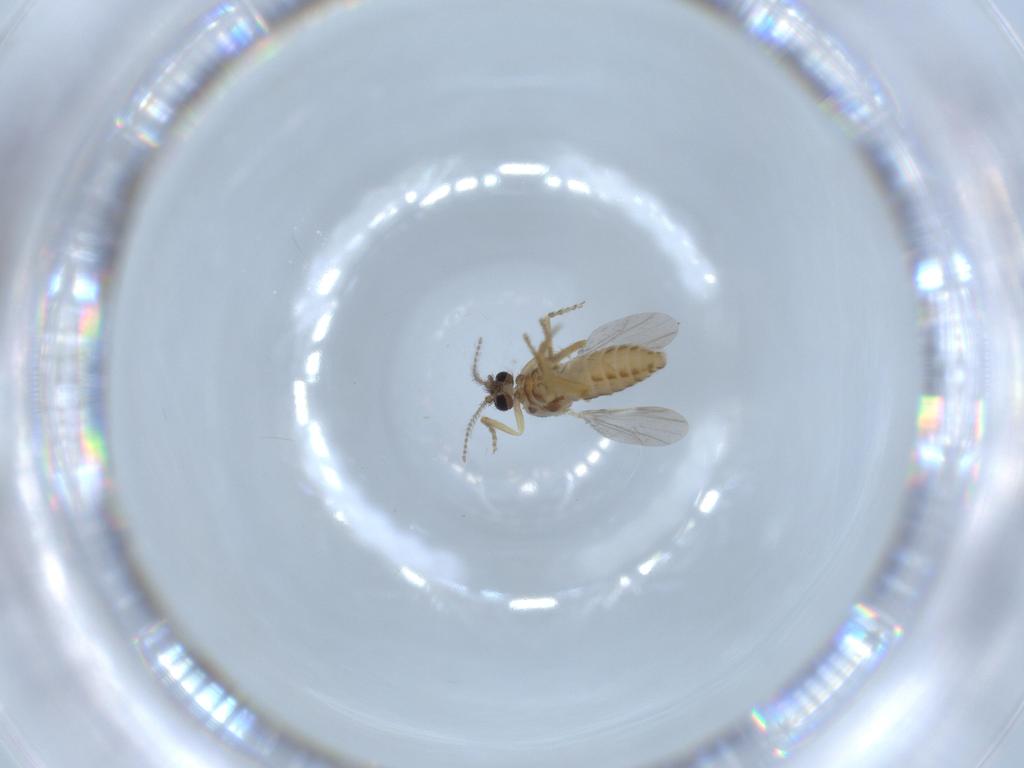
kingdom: Animalia
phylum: Arthropoda
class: Insecta
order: Diptera
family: Ceratopogonidae
